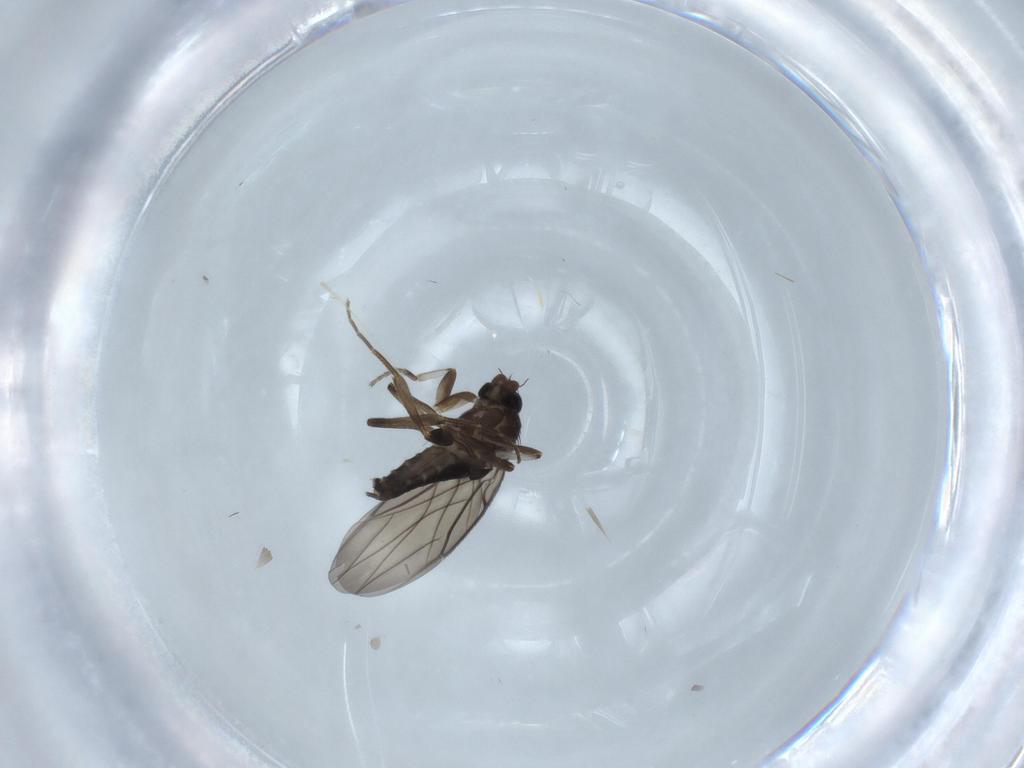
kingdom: Animalia
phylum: Arthropoda
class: Insecta
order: Diptera
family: Phoridae
